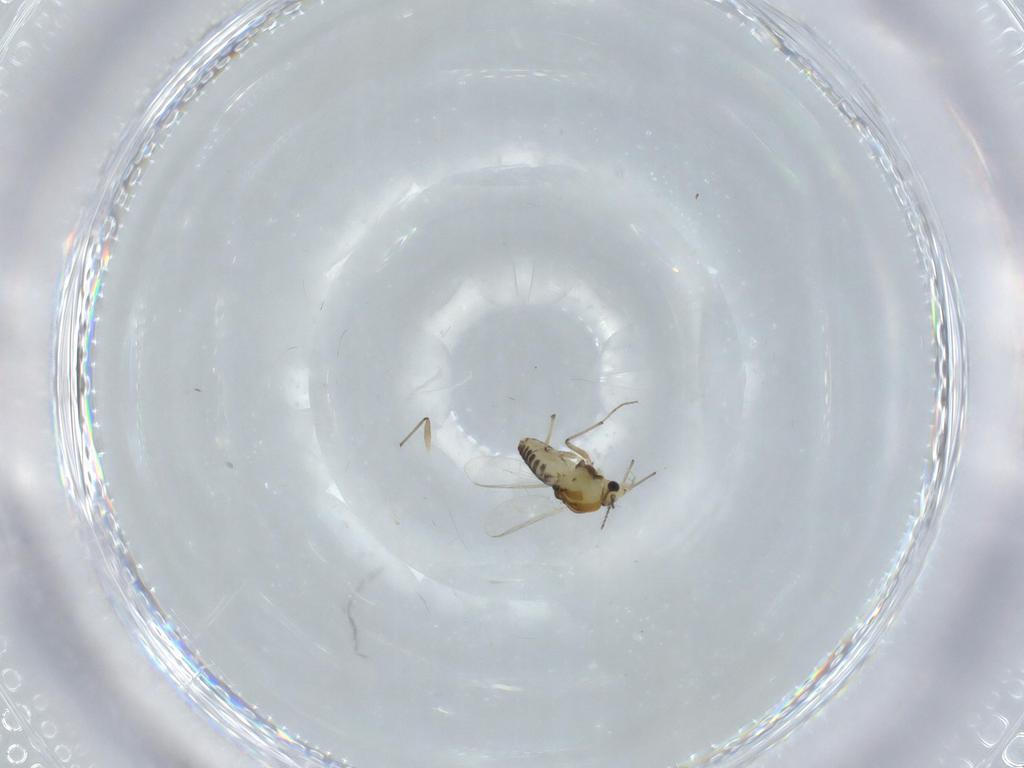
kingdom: Animalia
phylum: Arthropoda
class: Insecta
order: Diptera
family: Chironomidae
